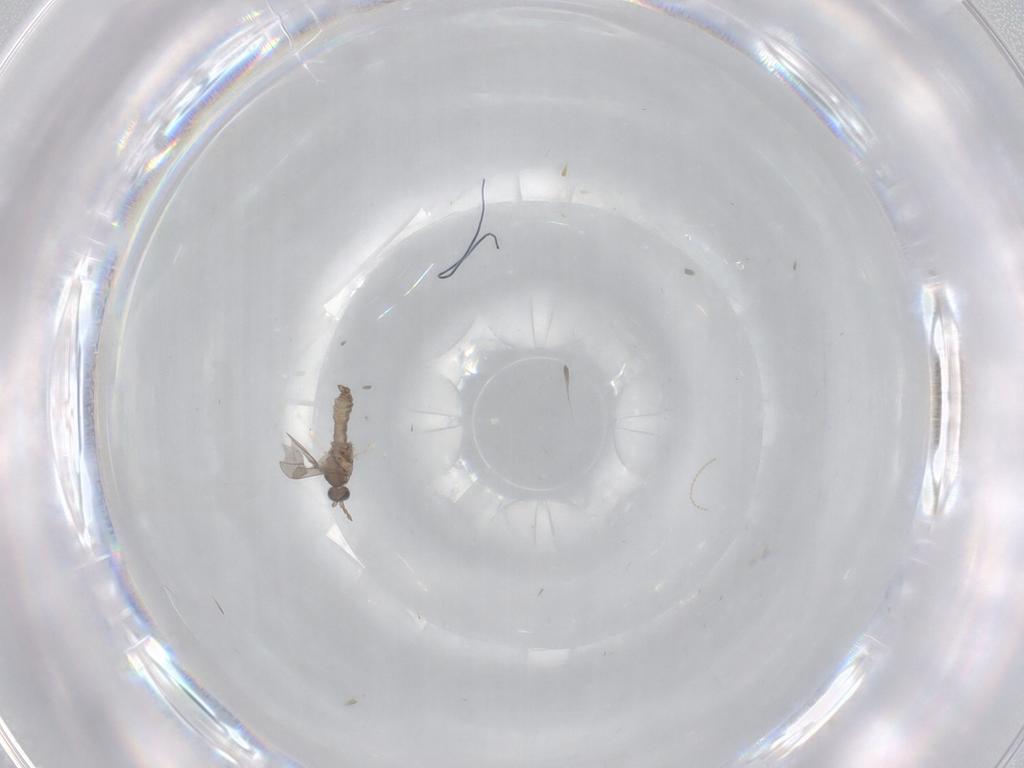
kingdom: Animalia
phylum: Arthropoda
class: Insecta
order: Diptera
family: Cecidomyiidae
